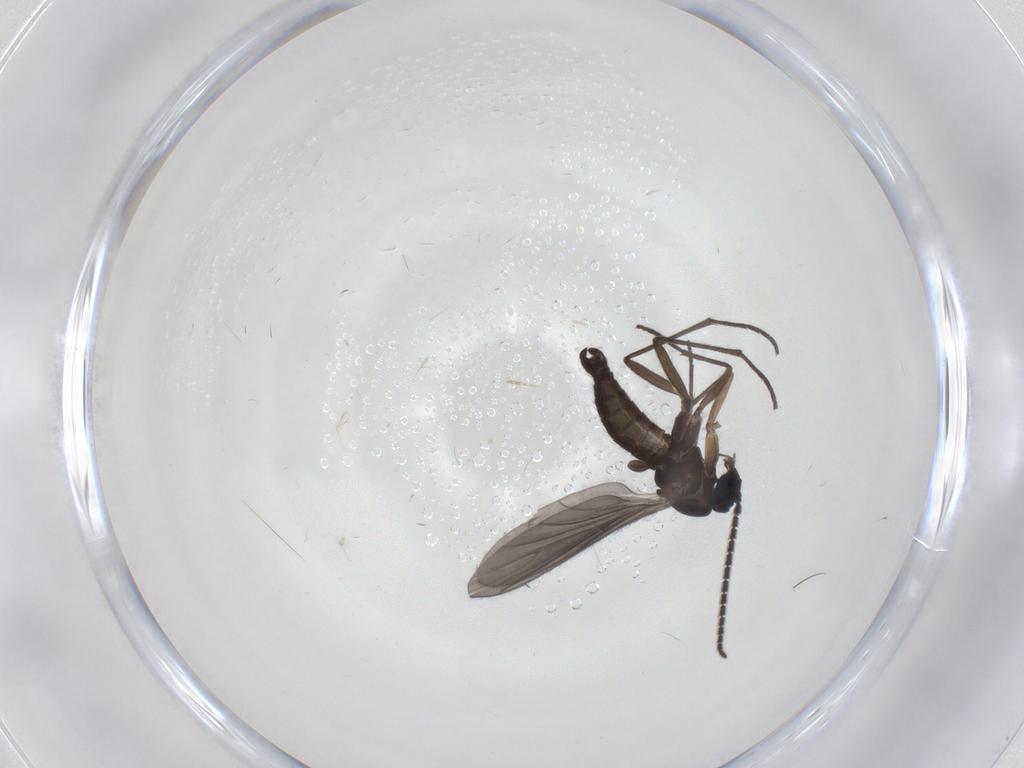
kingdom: Animalia
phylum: Arthropoda
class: Insecta
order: Diptera
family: Sciaridae
